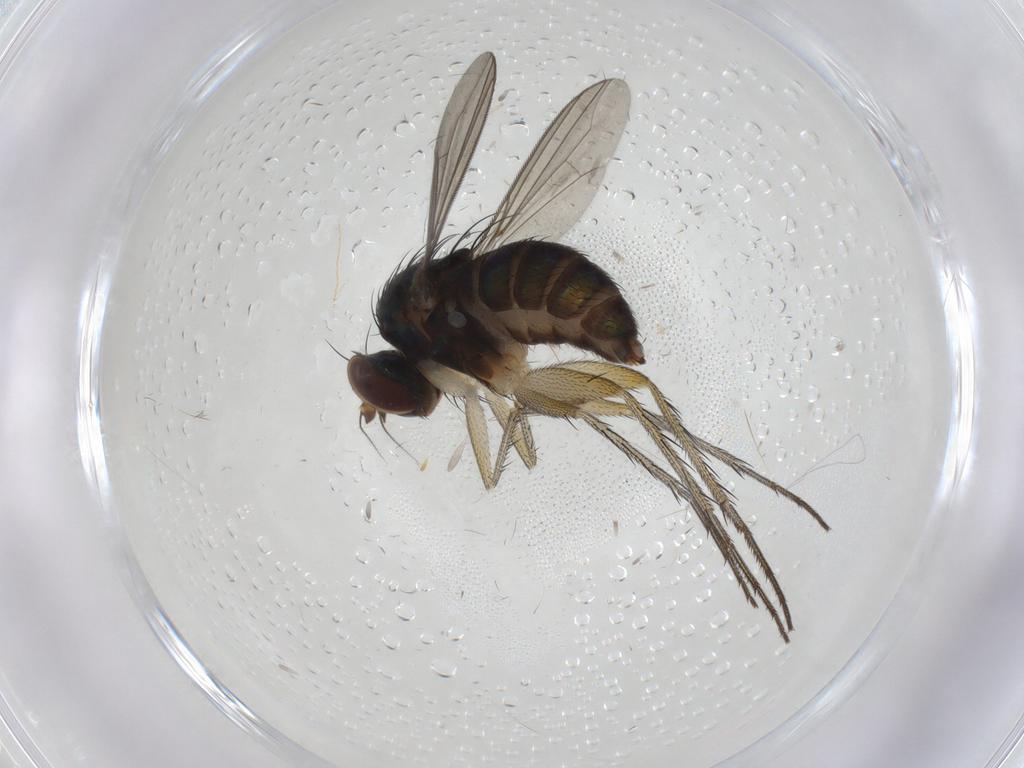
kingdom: Animalia
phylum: Arthropoda
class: Insecta
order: Diptera
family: Dolichopodidae
